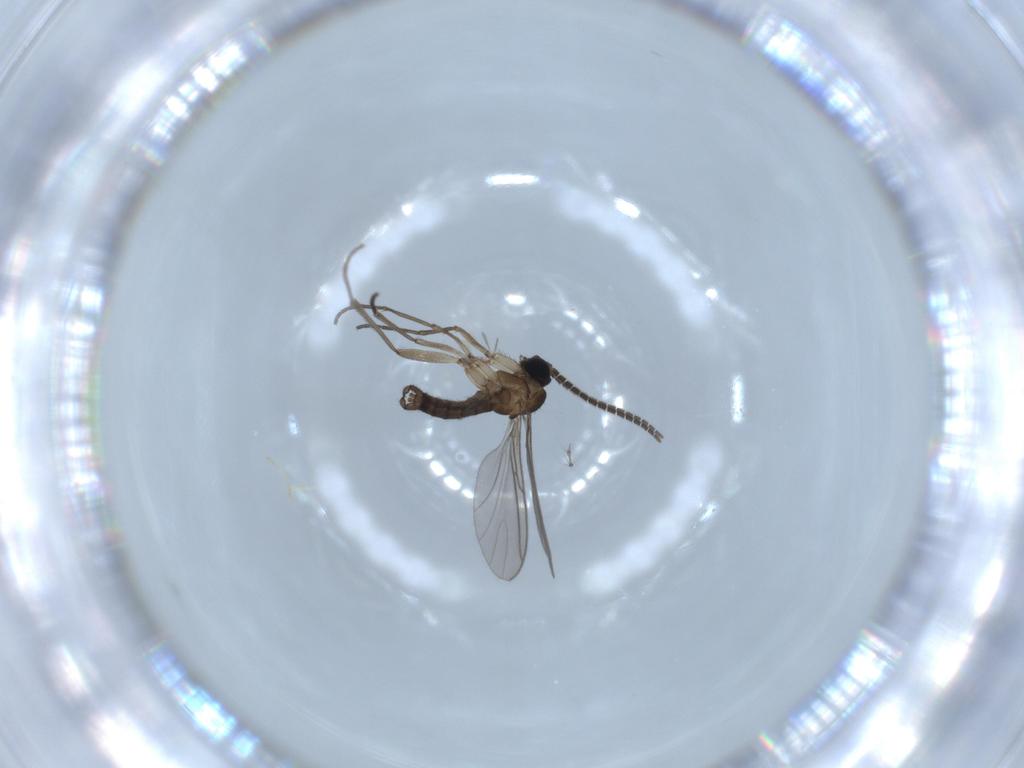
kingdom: Animalia
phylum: Arthropoda
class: Insecta
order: Diptera
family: Sciaridae
